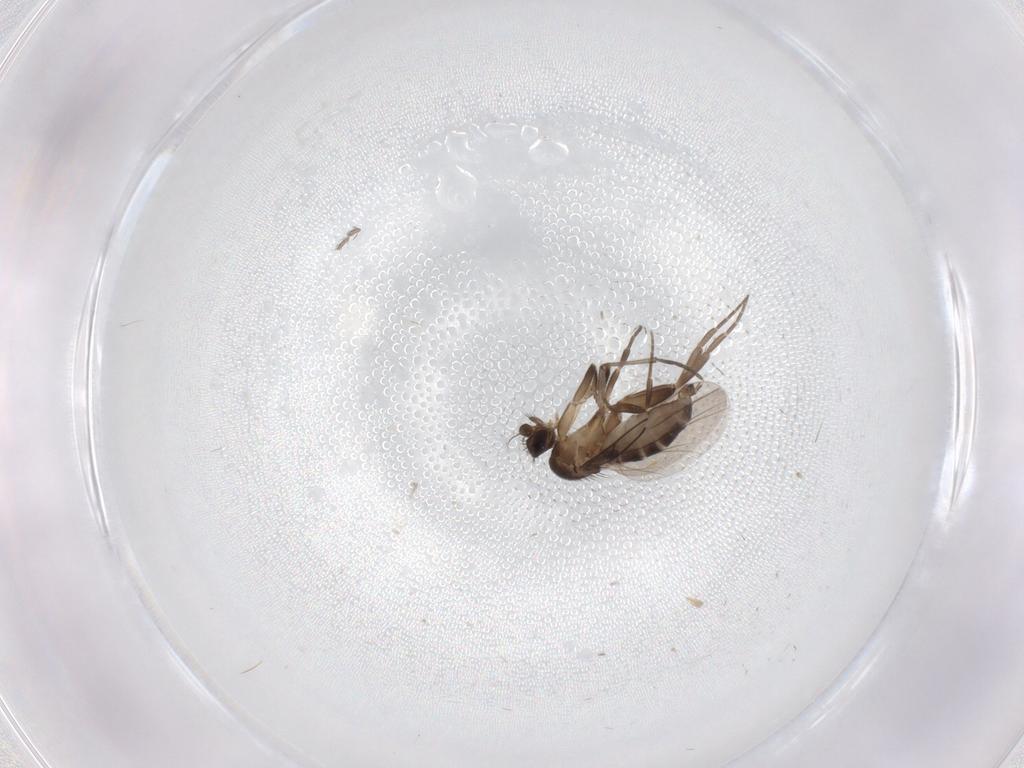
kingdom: Animalia
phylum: Arthropoda
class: Insecta
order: Diptera
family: Sciaridae
